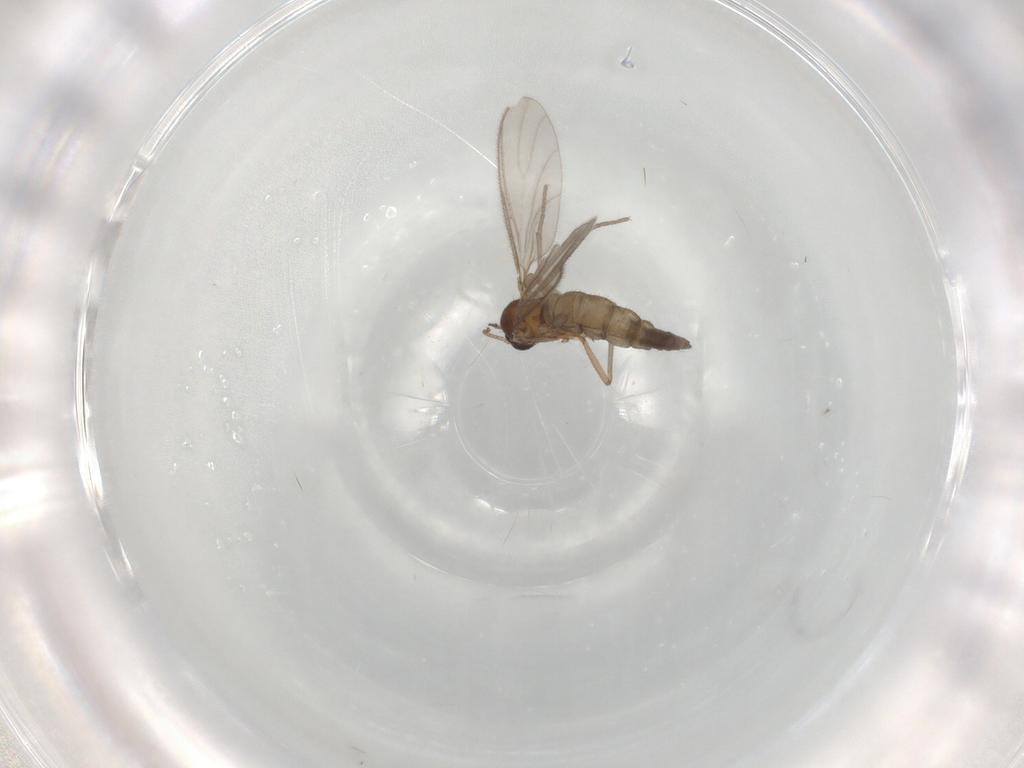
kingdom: Animalia
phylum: Arthropoda
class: Insecta
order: Diptera
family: Sciaridae
